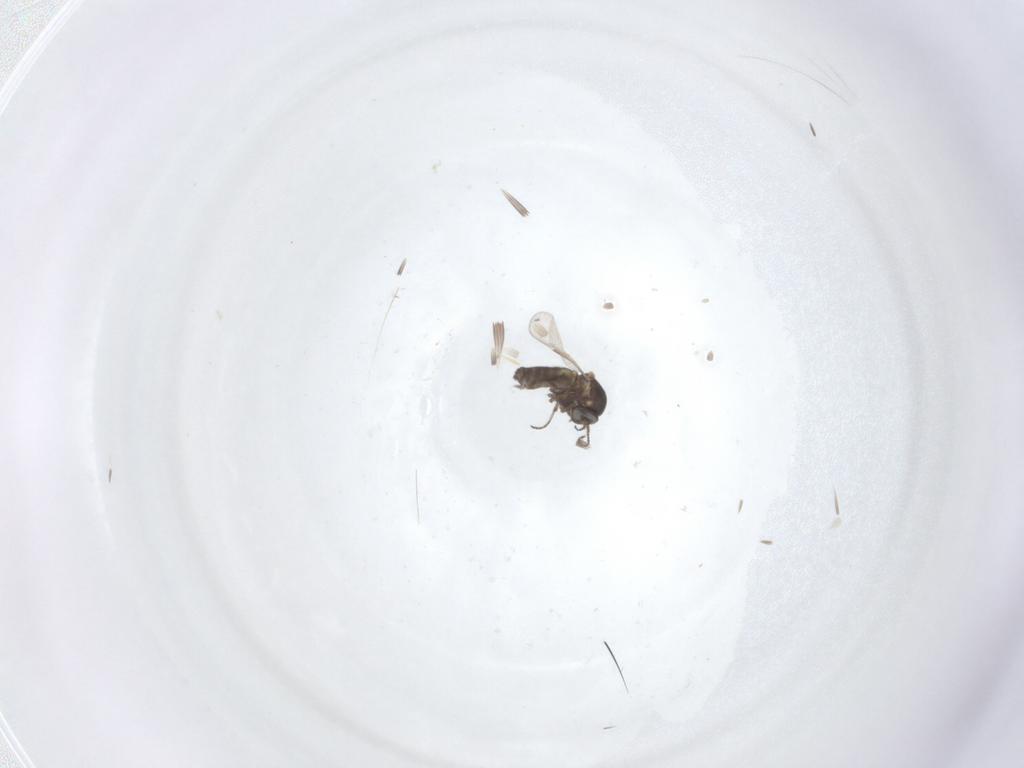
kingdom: Animalia
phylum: Arthropoda
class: Insecta
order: Diptera
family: Ceratopogonidae
